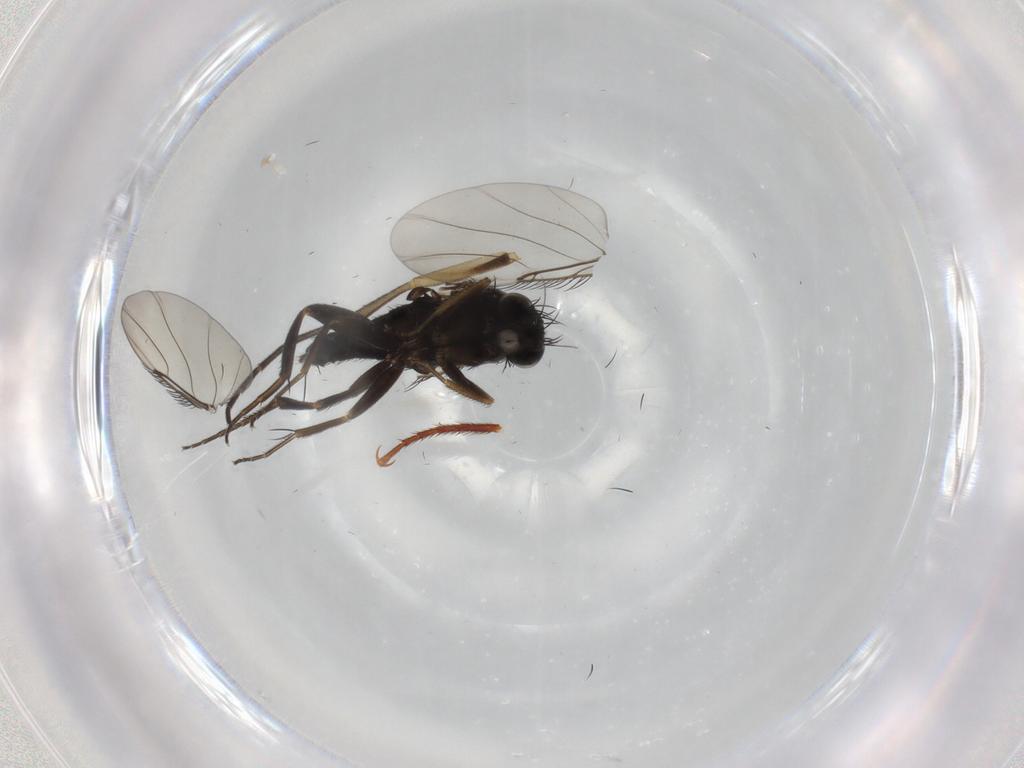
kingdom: Animalia
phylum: Arthropoda
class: Insecta
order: Diptera
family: Phoridae
